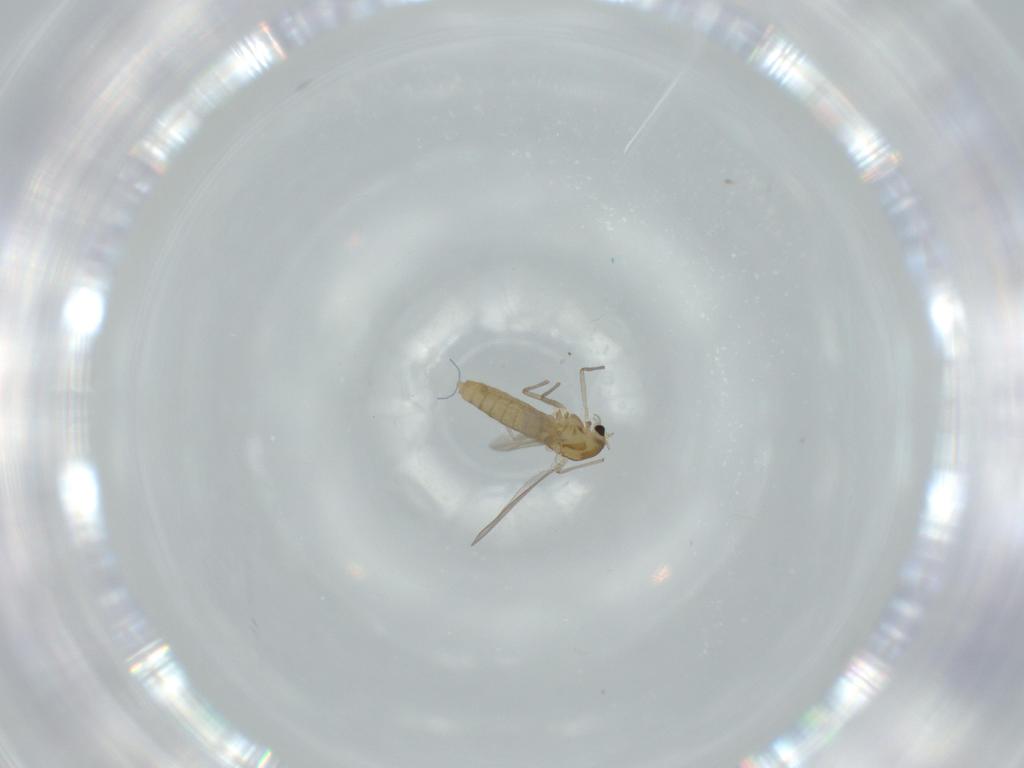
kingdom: Animalia
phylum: Arthropoda
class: Insecta
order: Diptera
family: Chironomidae
